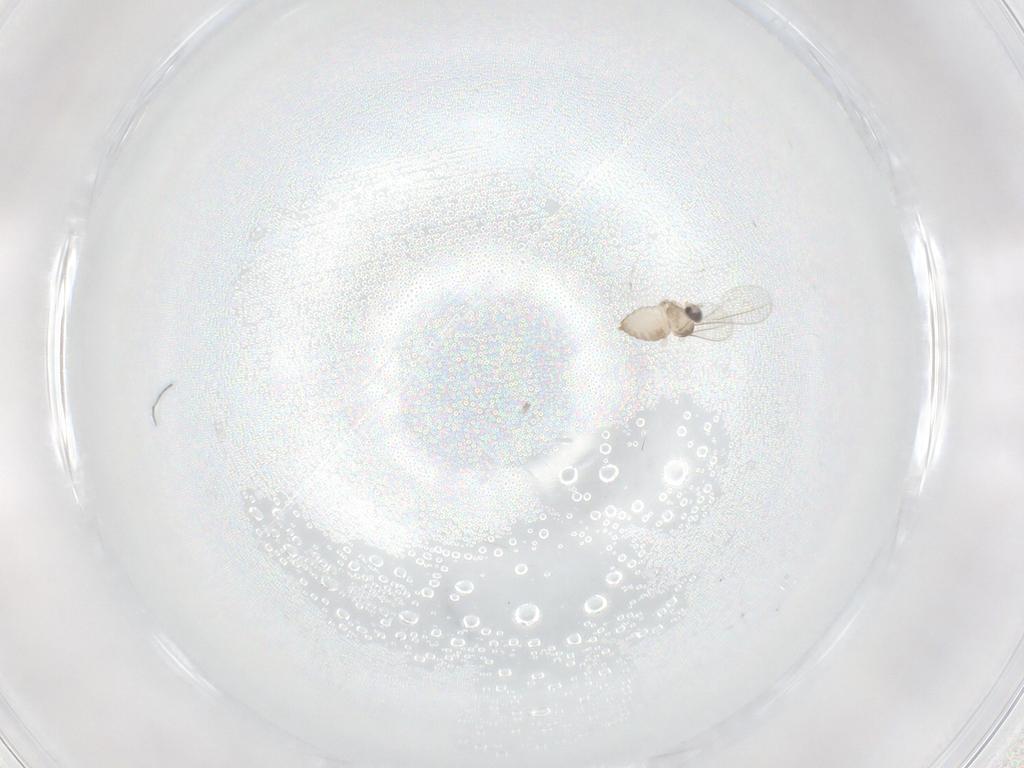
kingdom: Animalia
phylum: Arthropoda
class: Insecta
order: Diptera
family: Cecidomyiidae
